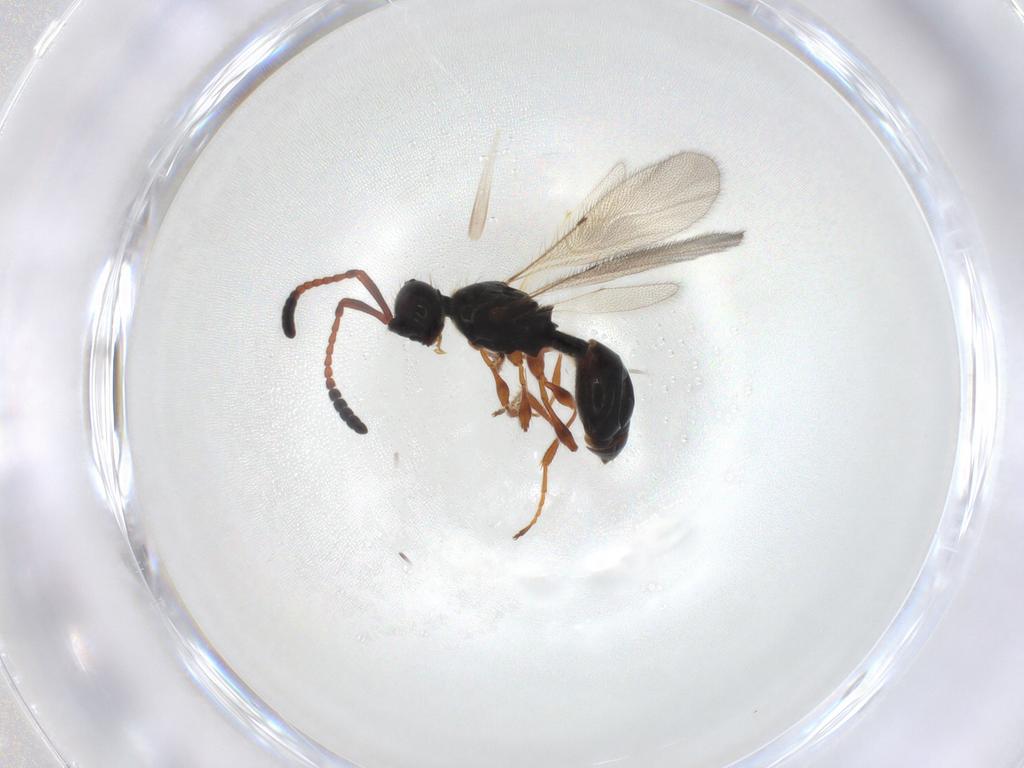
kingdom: Animalia
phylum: Arthropoda
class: Insecta
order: Hymenoptera
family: Diapriidae
